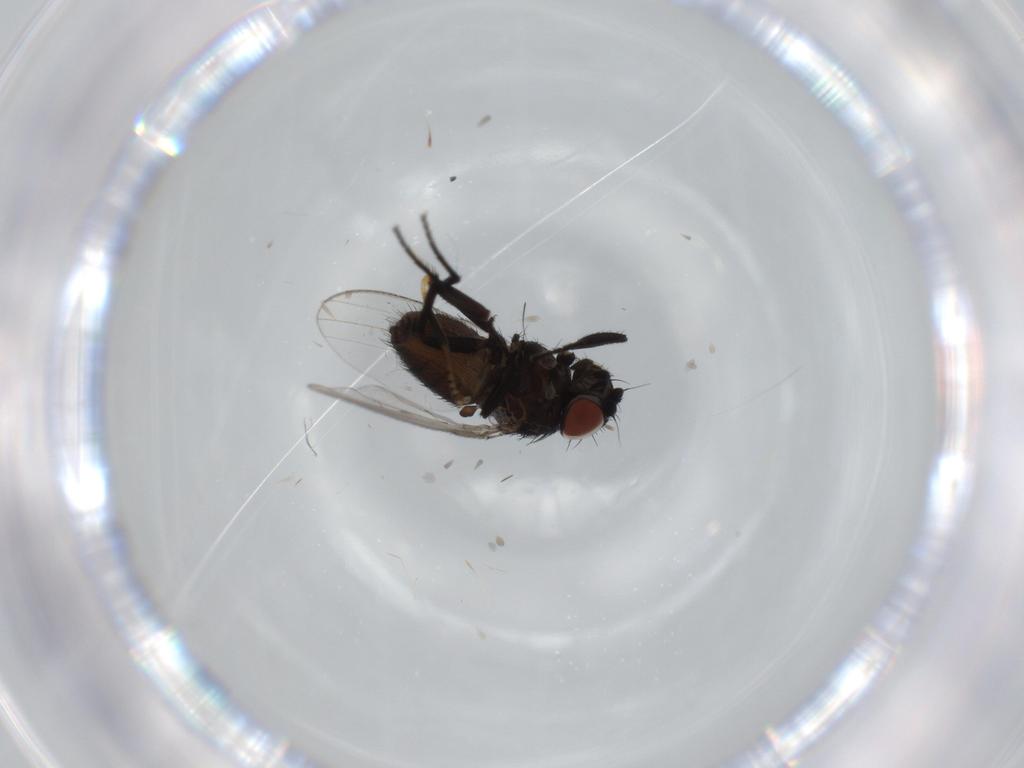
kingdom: Animalia
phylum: Arthropoda
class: Insecta
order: Diptera
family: Milichiidae
